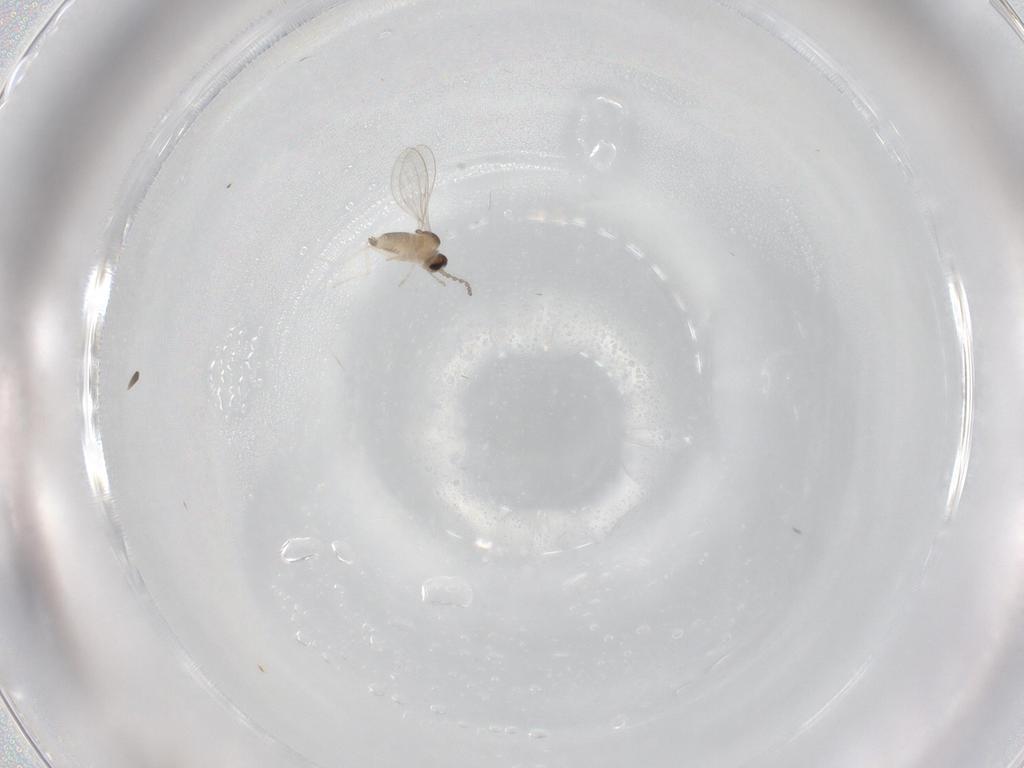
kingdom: Animalia
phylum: Arthropoda
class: Insecta
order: Diptera
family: Cecidomyiidae
